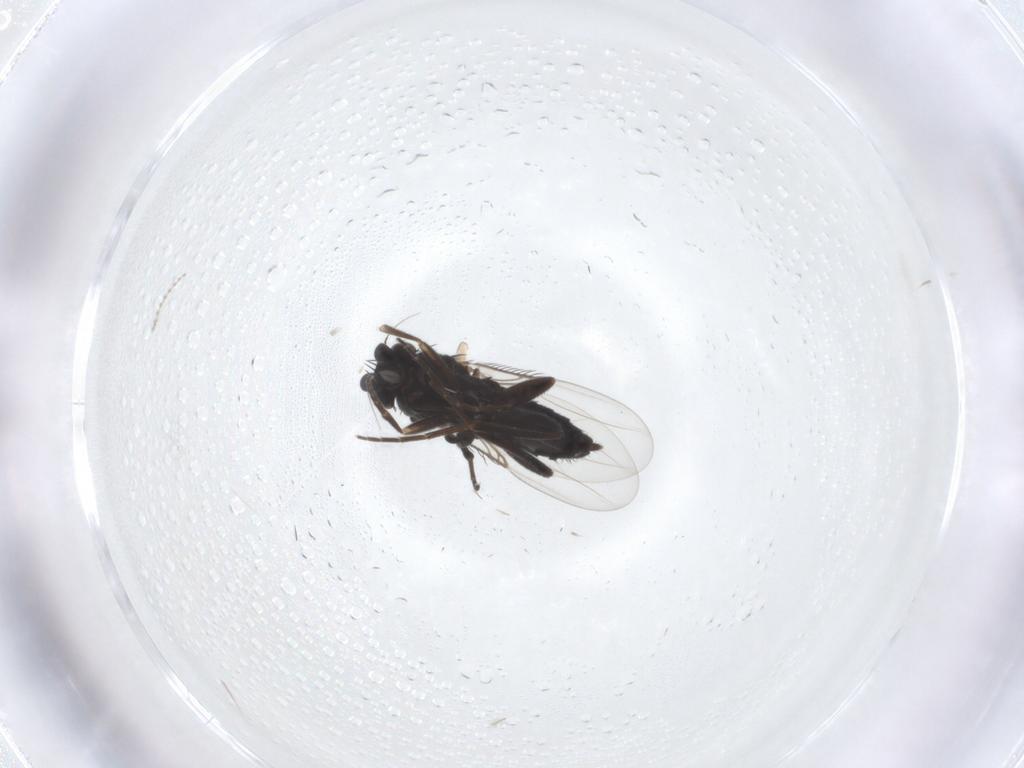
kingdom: Animalia
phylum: Arthropoda
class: Insecta
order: Diptera
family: Phoridae
